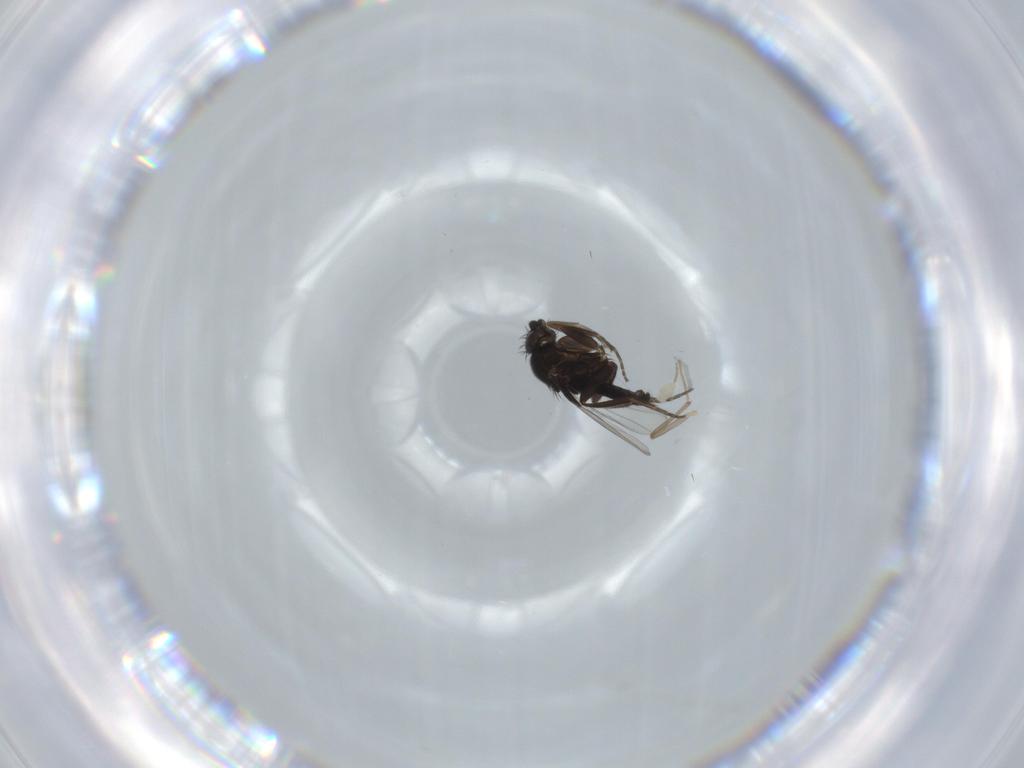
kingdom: Animalia
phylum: Arthropoda
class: Insecta
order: Diptera
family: Phoridae
